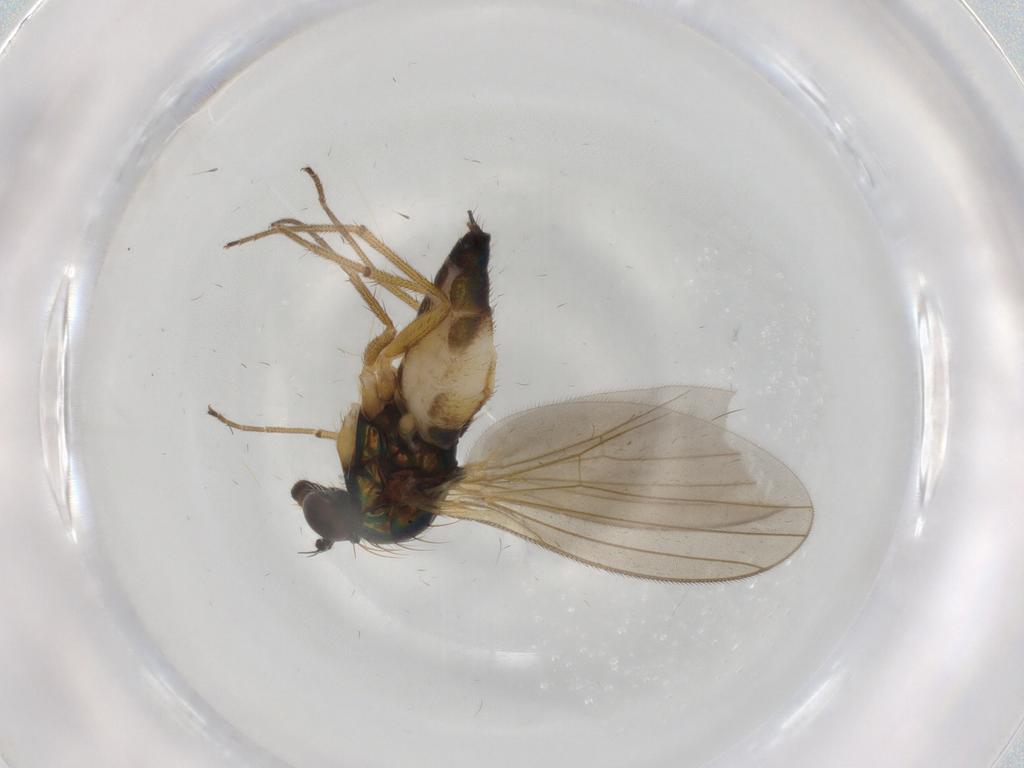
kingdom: Animalia
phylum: Arthropoda
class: Insecta
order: Diptera
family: Dolichopodidae
